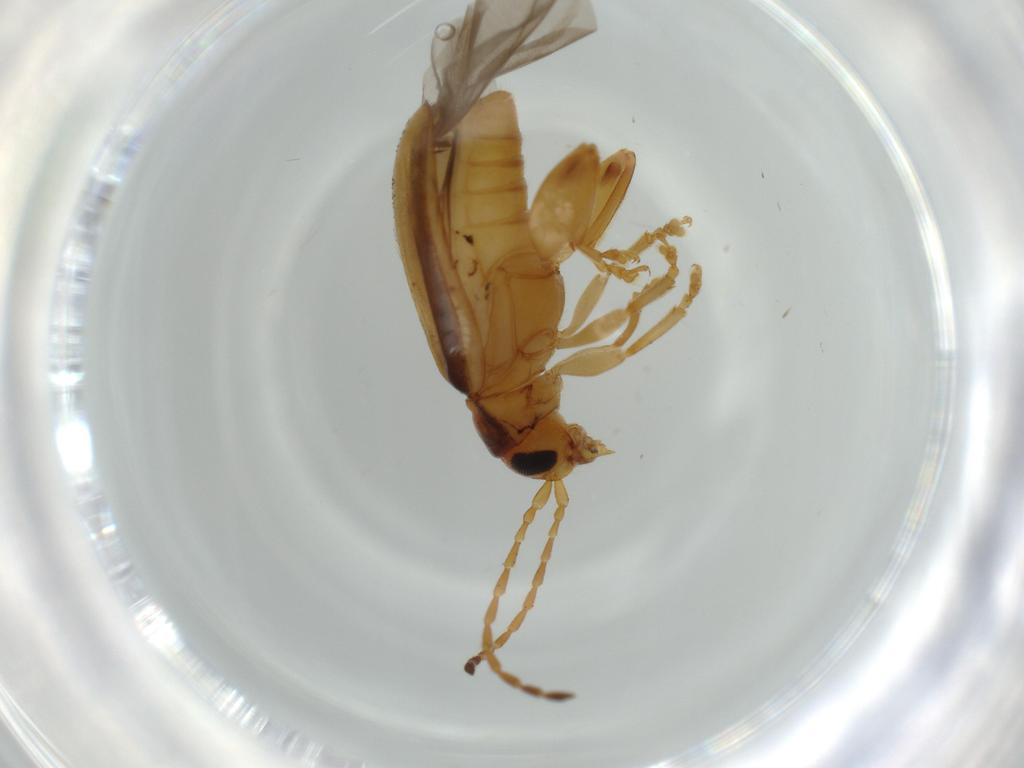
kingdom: Animalia
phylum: Arthropoda
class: Insecta
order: Coleoptera
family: Chrysomelidae
